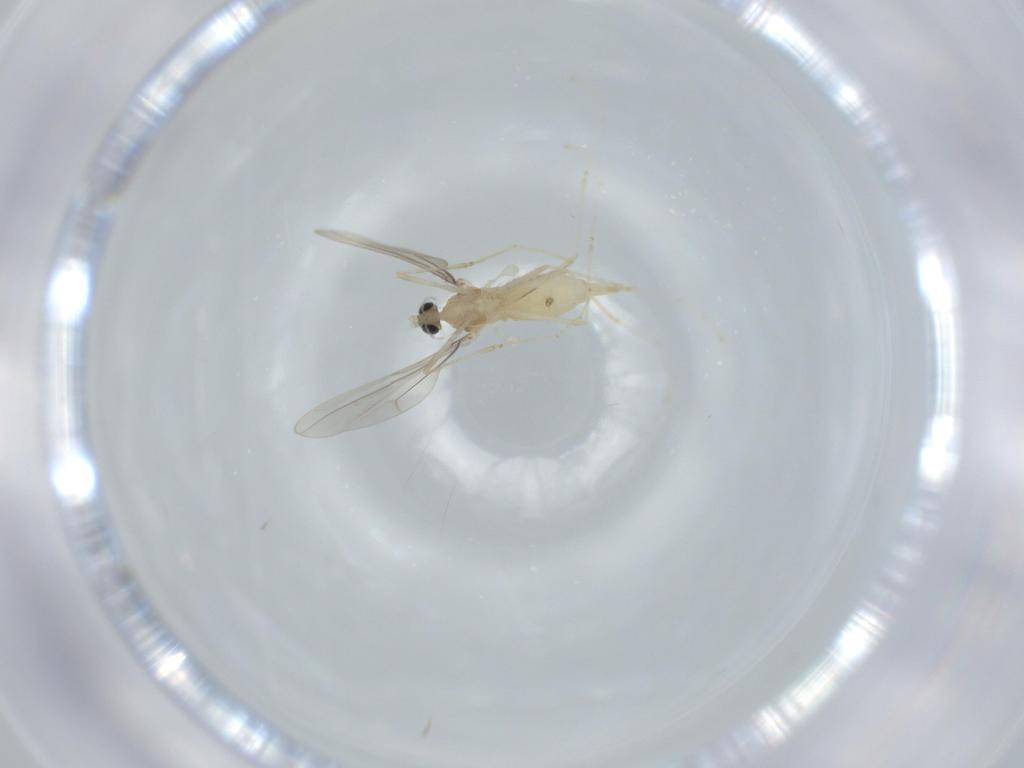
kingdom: Animalia
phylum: Arthropoda
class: Insecta
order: Diptera
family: Cecidomyiidae
